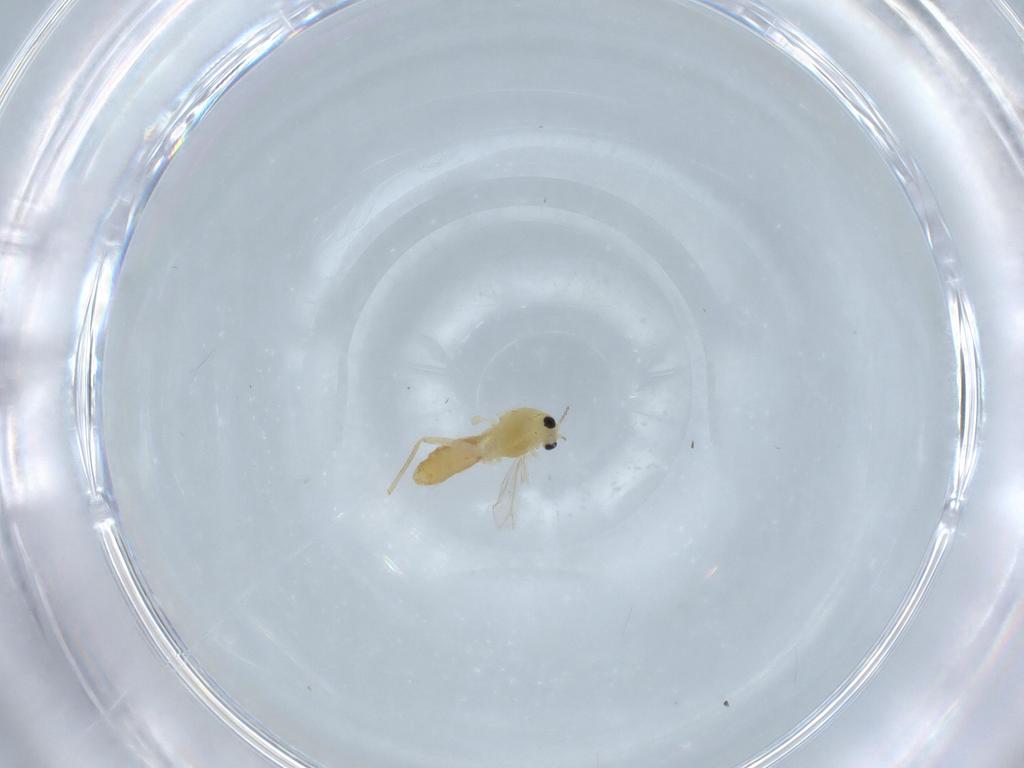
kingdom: Animalia
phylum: Arthropoda
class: Insecta
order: Diptera
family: Chironomidae
